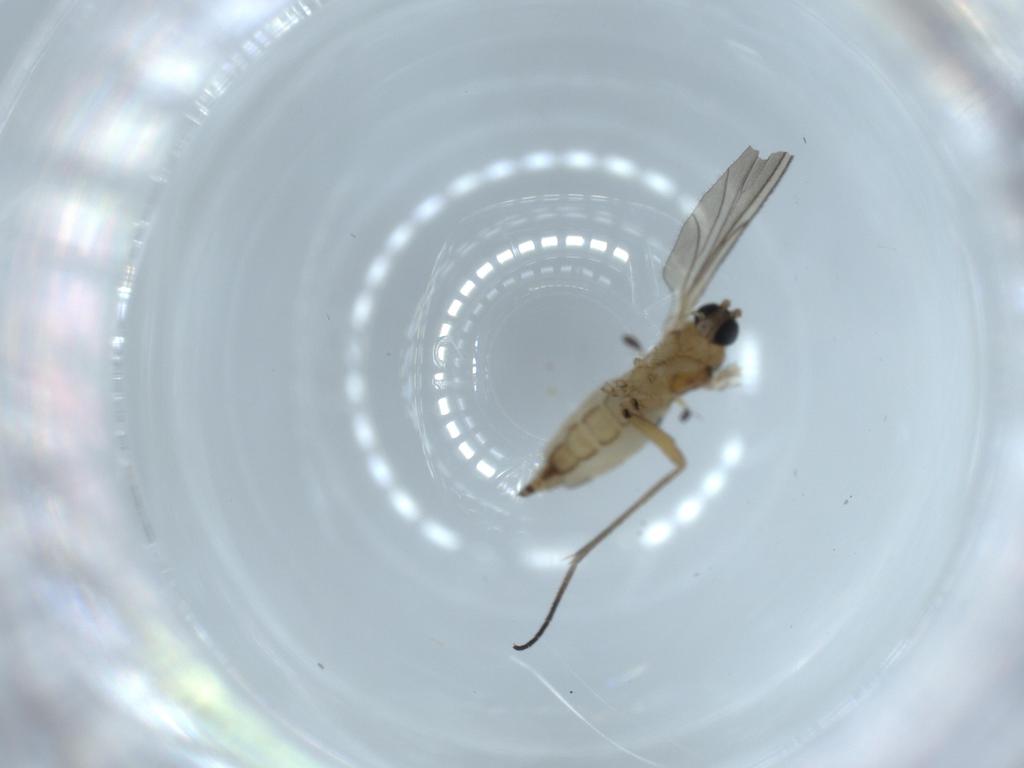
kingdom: Animalia
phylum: Arthropoda
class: Insecta
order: Diptera
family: Sciaridae
